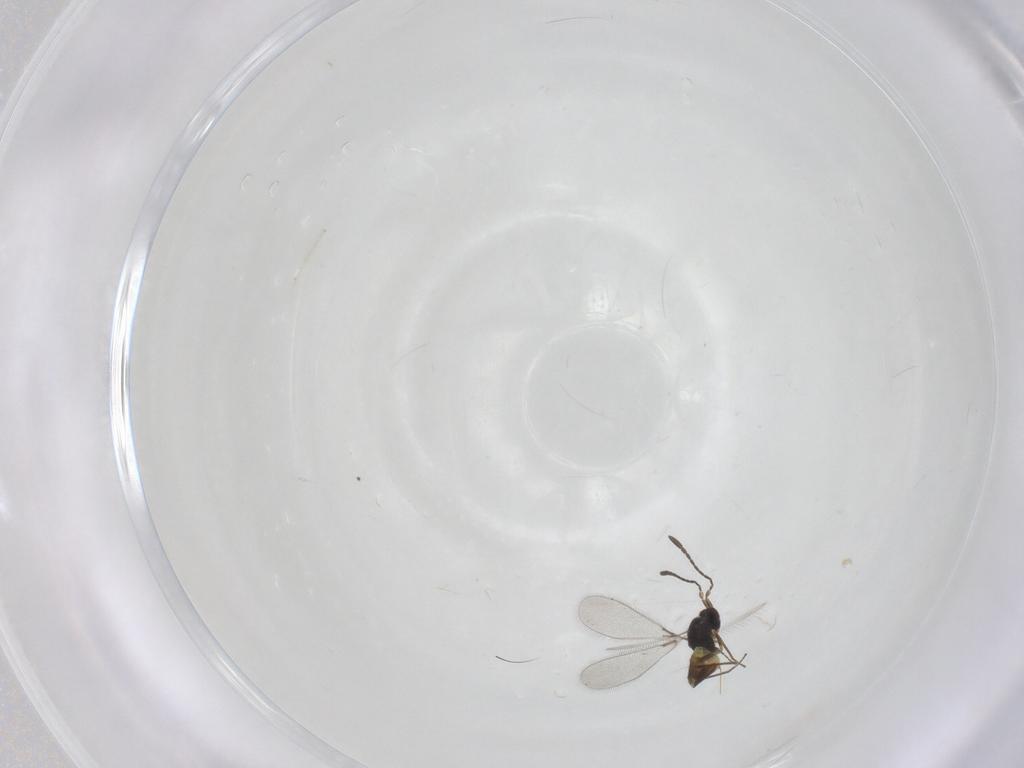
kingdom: Animalia
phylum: Arthropoda
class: Insecta
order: Hymenoptera
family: Mymaridae
